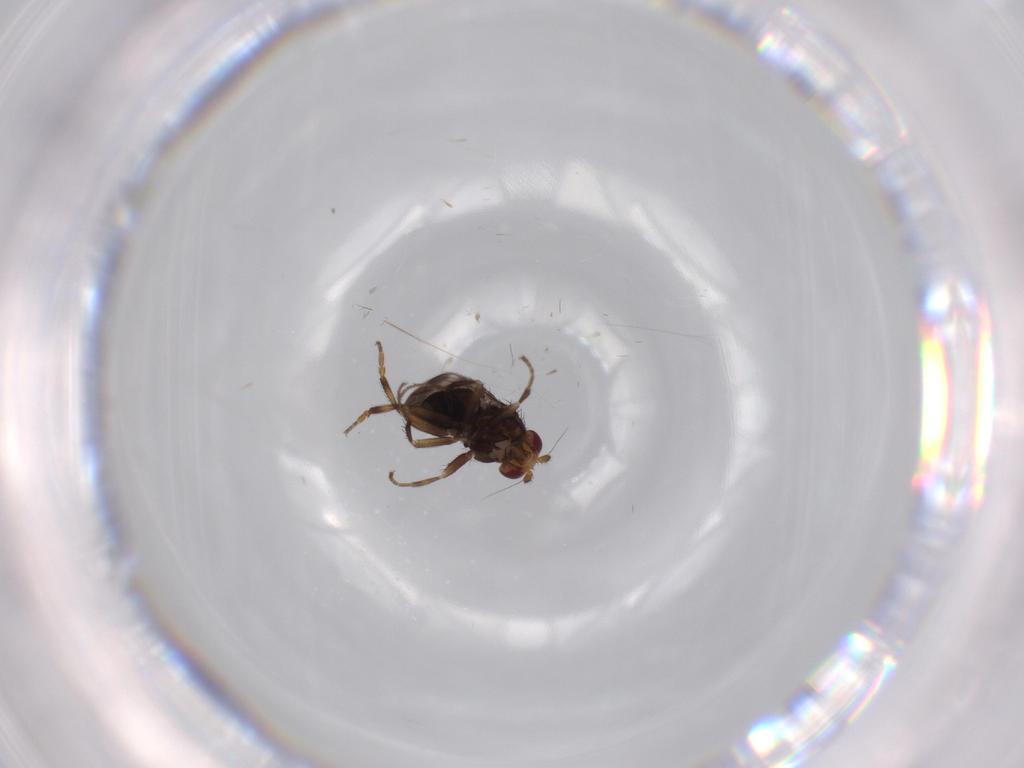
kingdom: Animalia
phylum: Arthropoda
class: Insecta
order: Diptera
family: Sphaeroceridae
